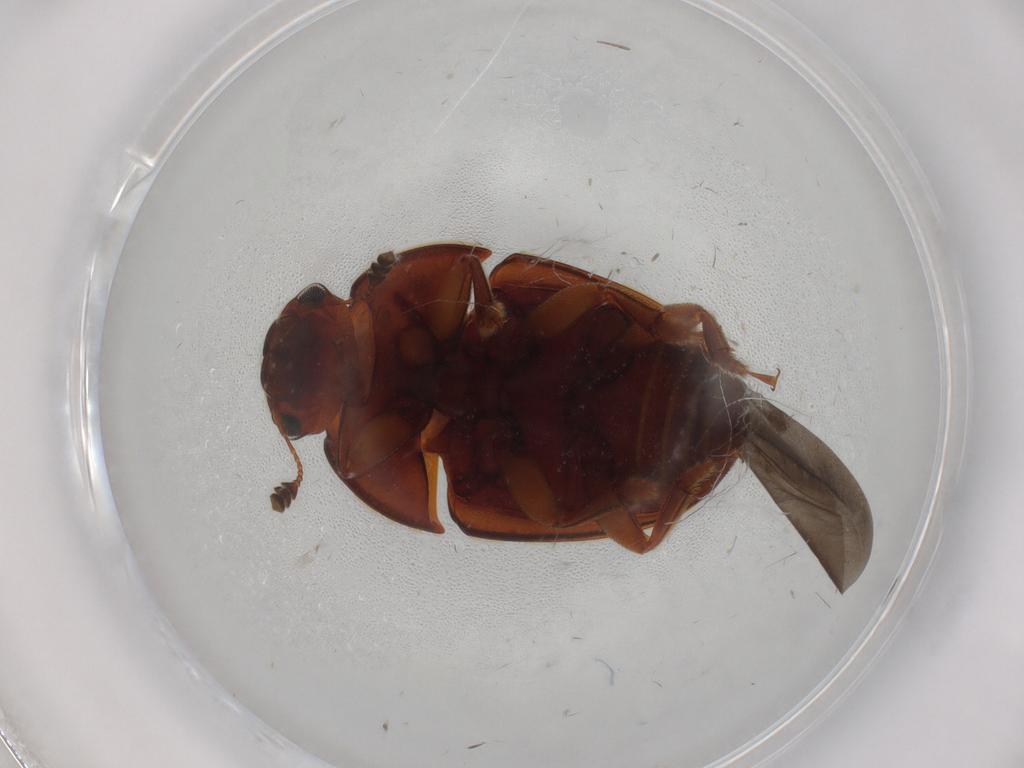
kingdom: Animalia
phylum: Arthropoda
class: Insecta
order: Coleoptera
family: Nitidulidae
